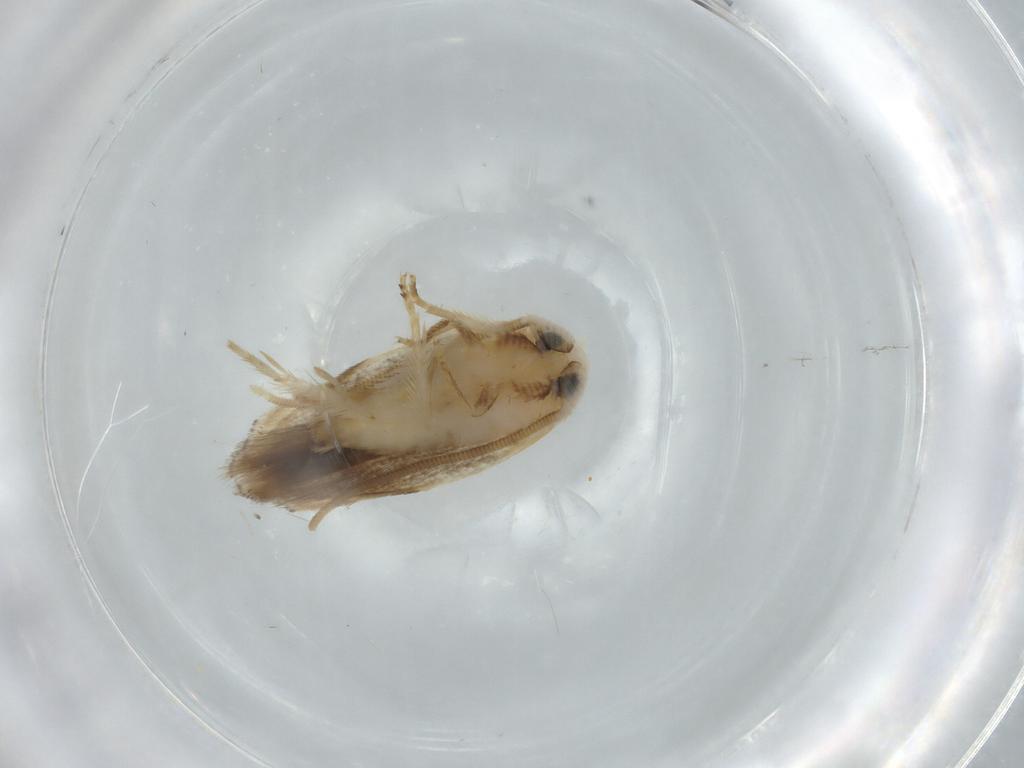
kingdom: Animalia
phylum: Arthropoda
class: Insecta
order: Lepidoptera
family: Opostegidae
